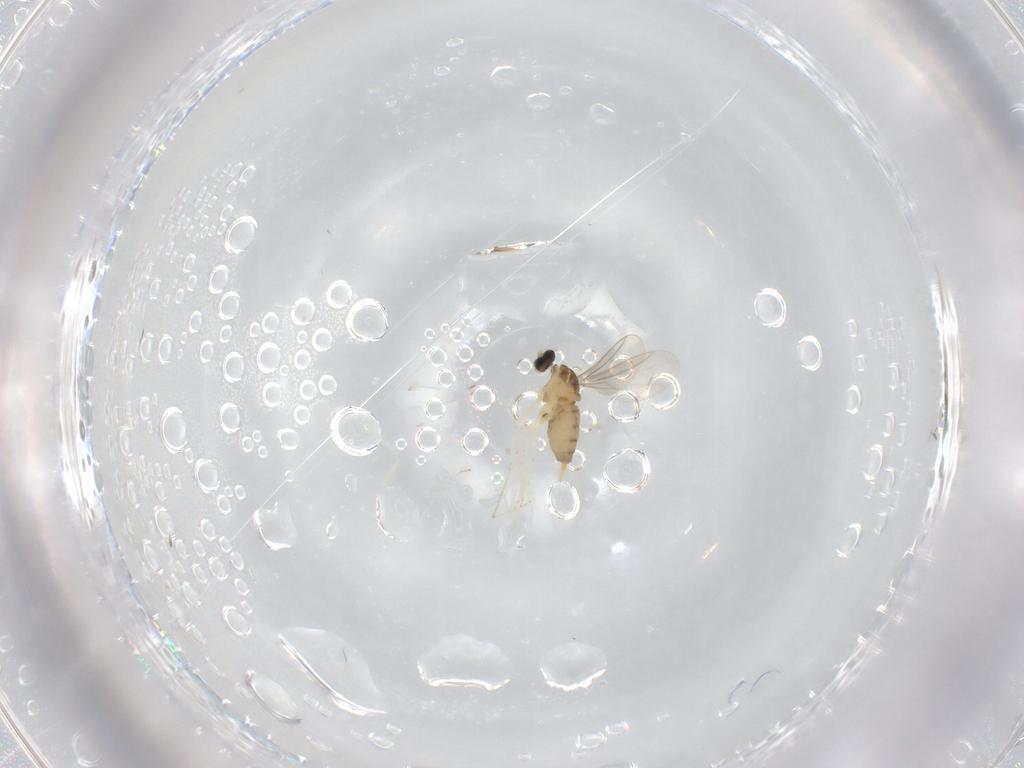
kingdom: Animalia
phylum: Arthropoda
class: Insecta
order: Diptera
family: Cecidomyiidae
